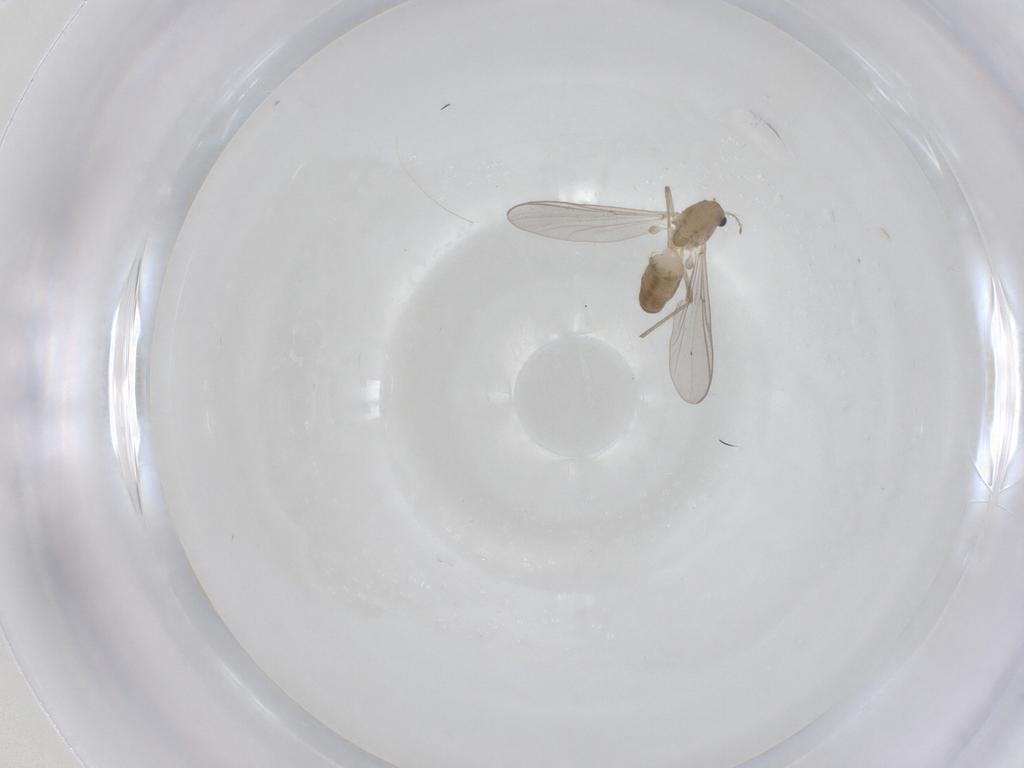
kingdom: Animalia
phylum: Arthropoda
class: Insecta
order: Diptera
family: Chironomidae
